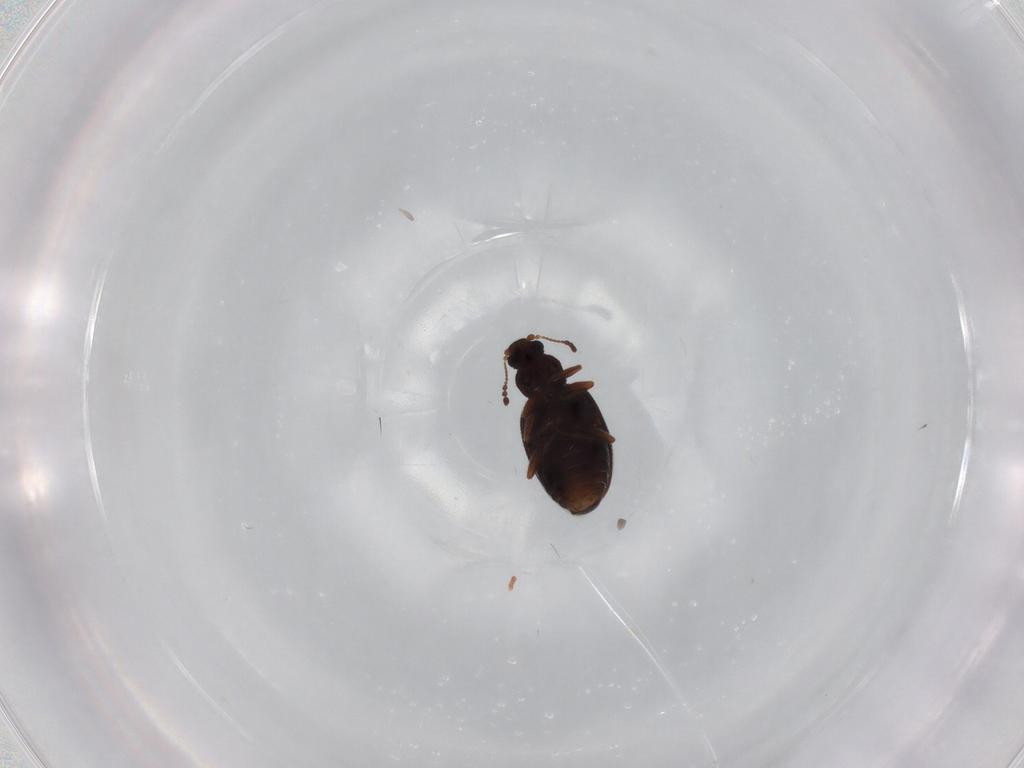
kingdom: Animalia
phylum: Arthropoda
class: Insecta
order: Coleoptera
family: Latridiidae
